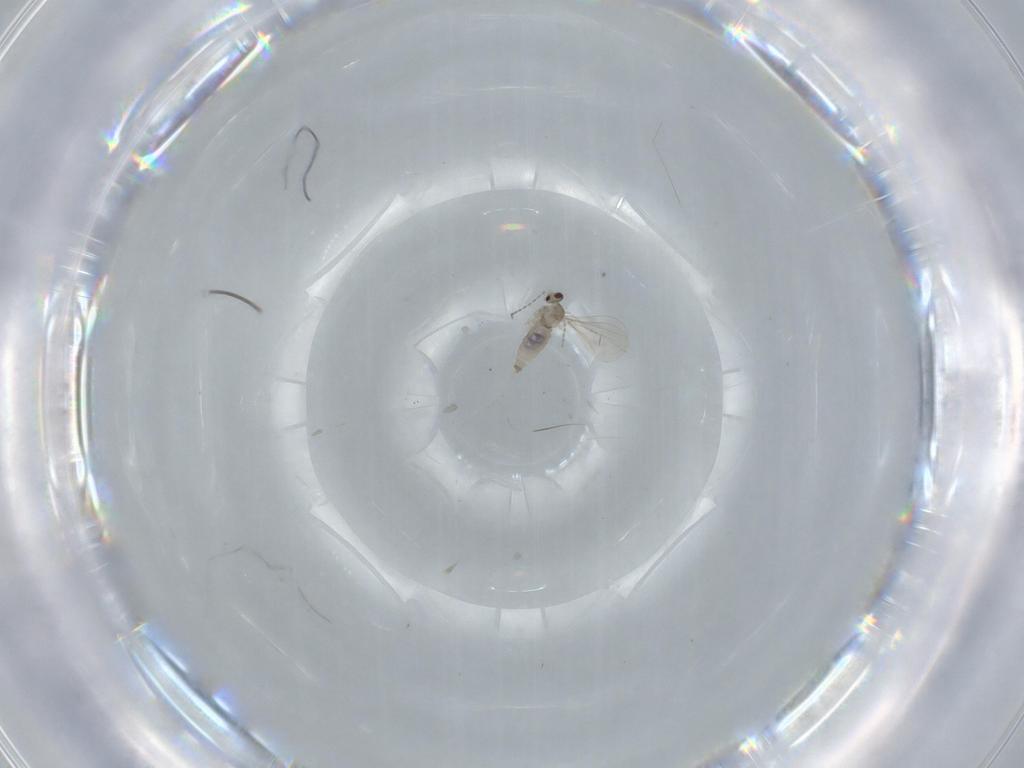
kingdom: Animalia
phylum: Arthropoda
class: Insecta
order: Diptera
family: Cecidomyiidae
